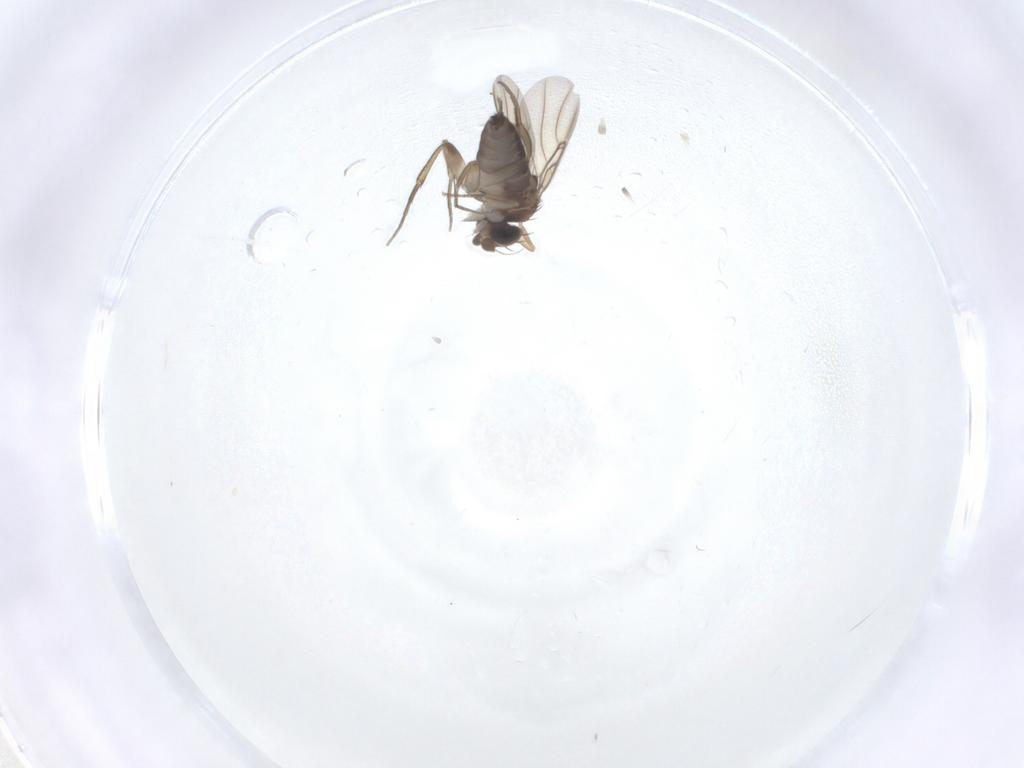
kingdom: Animalia
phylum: Arthropoda
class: Insecta
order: Diptera
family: Phoridae
